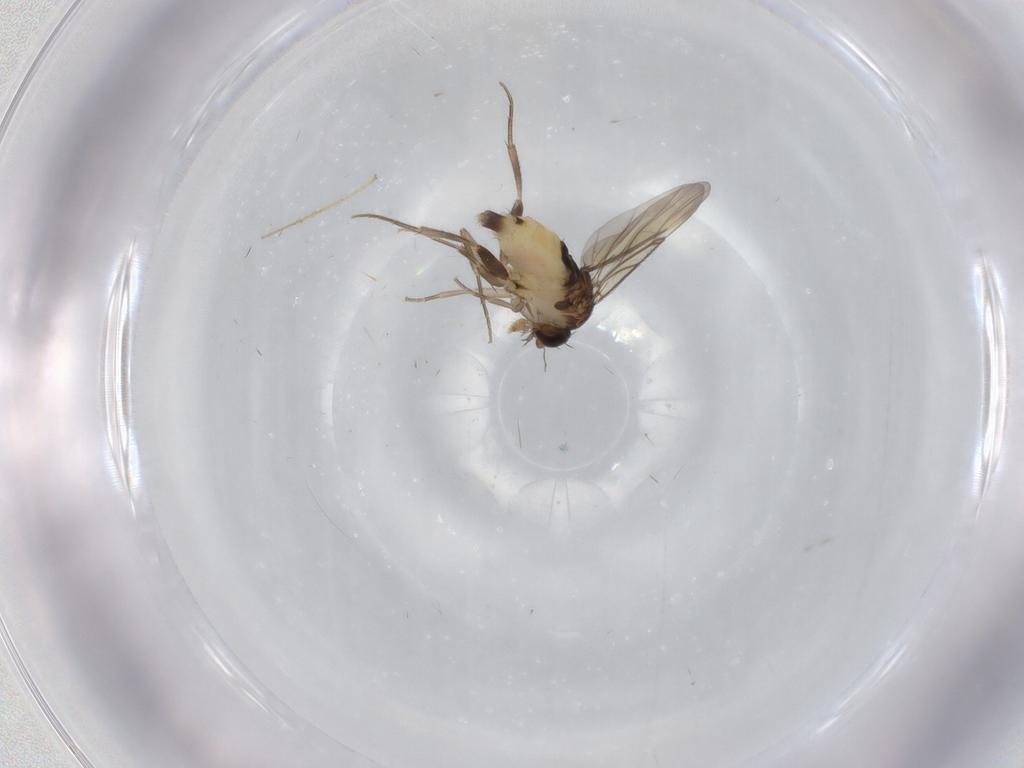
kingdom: Animalia
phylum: Arthropoda
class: Insecta
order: Diptera
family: Phoridae
